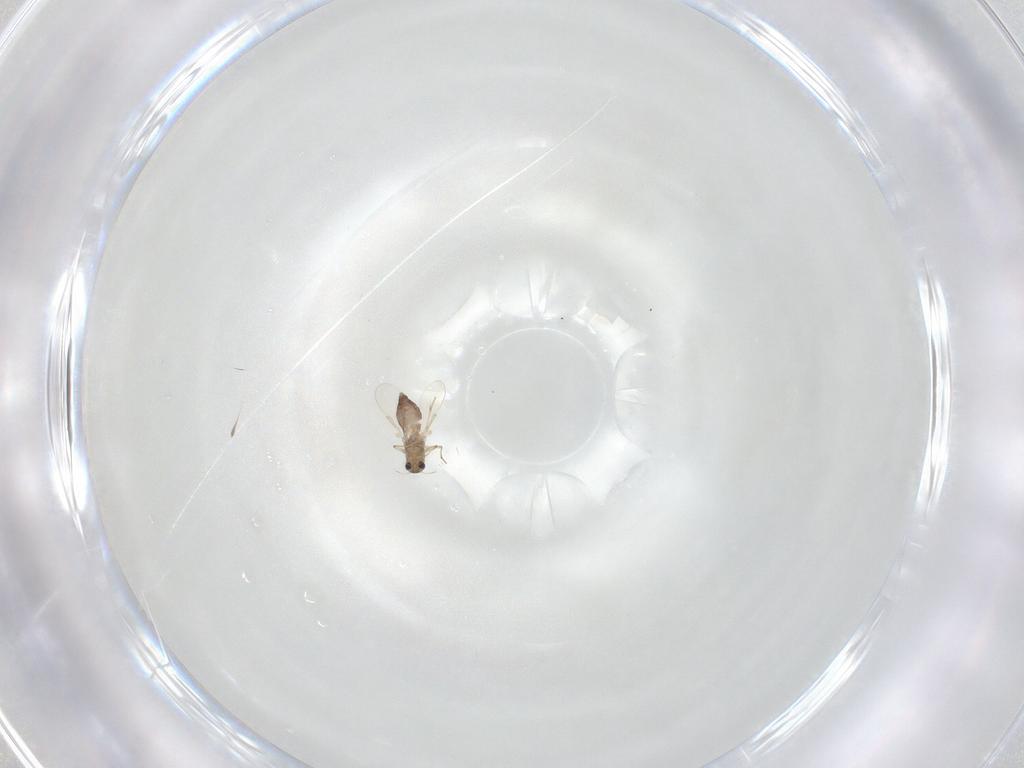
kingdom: Animalia
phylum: Arthropoda
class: Insecta
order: Diptera
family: Chironomidae
